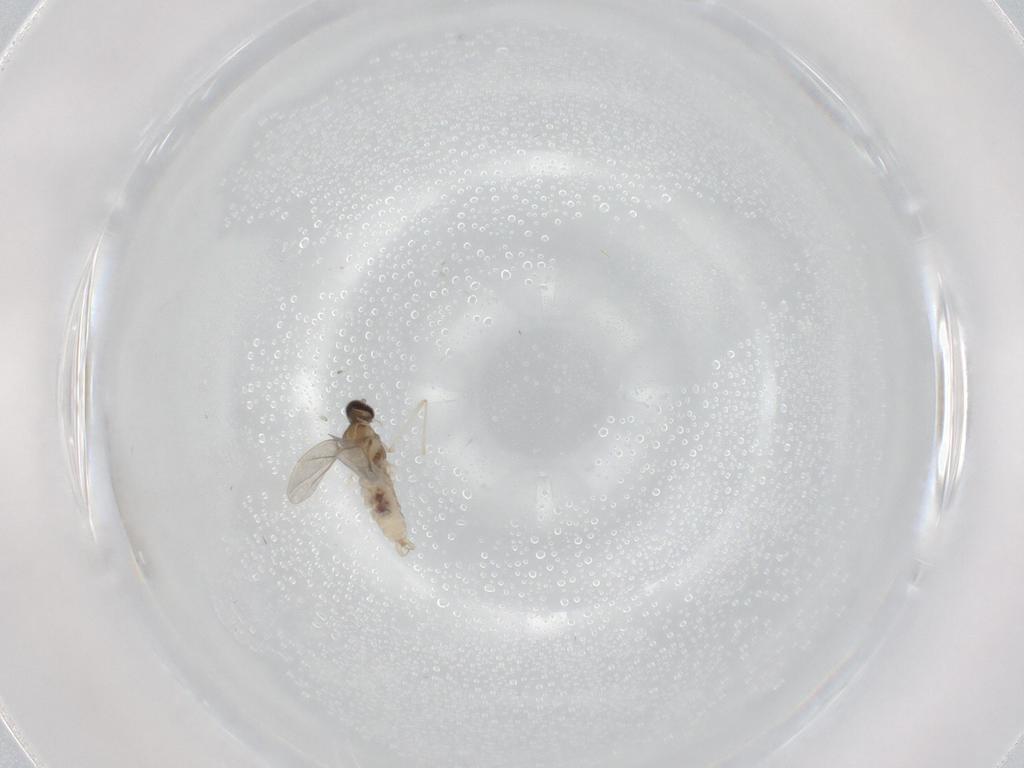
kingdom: Animalia
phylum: Arthropoda
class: Insecta
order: Diptera
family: Cecidomyiidae
